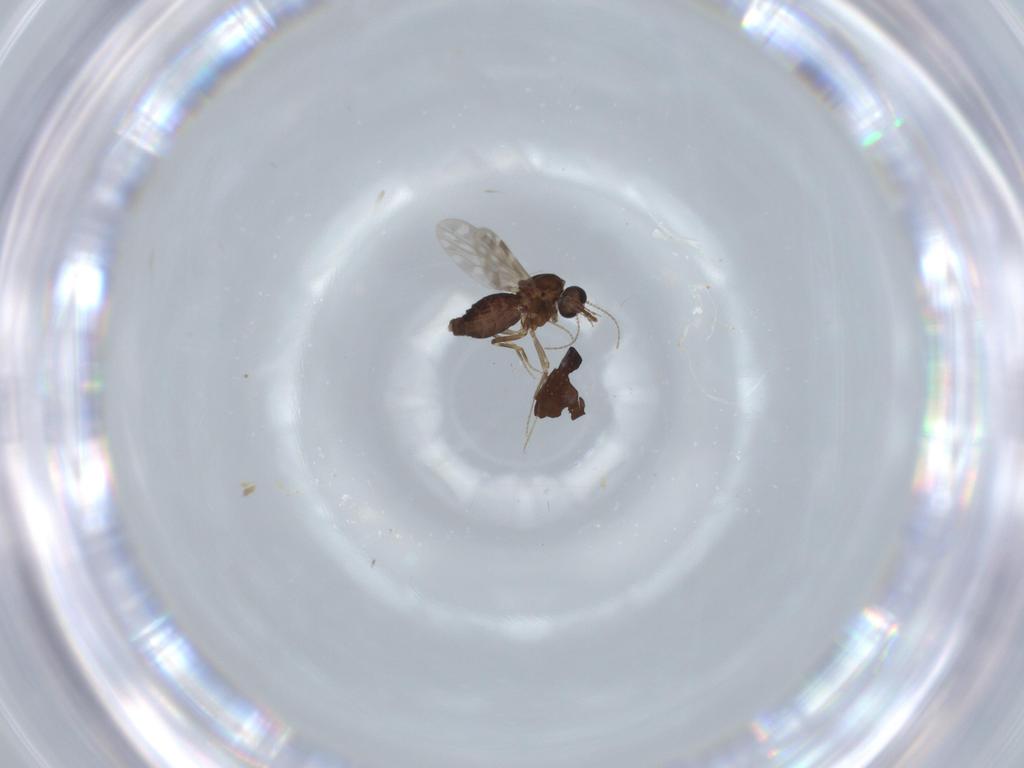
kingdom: Animalia
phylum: Arthropoda
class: Insecta
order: Diptera
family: Ceratopogonidae
